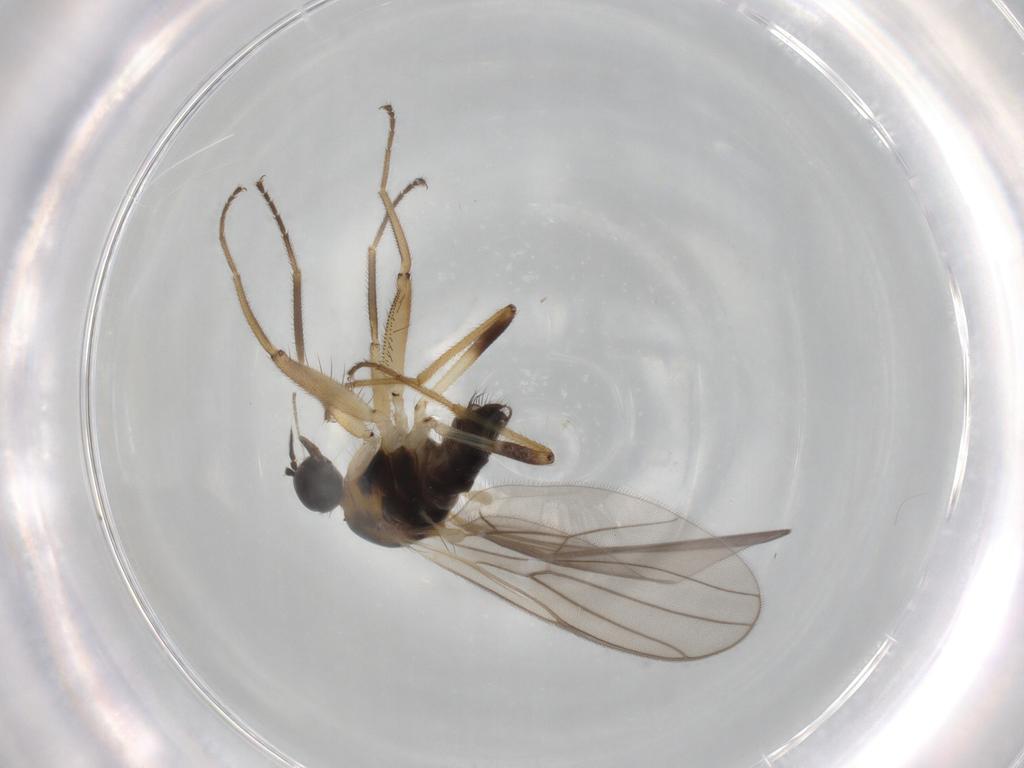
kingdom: Animalia
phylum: Arthropoda
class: Insecta
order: Diptera
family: Hybotidae
